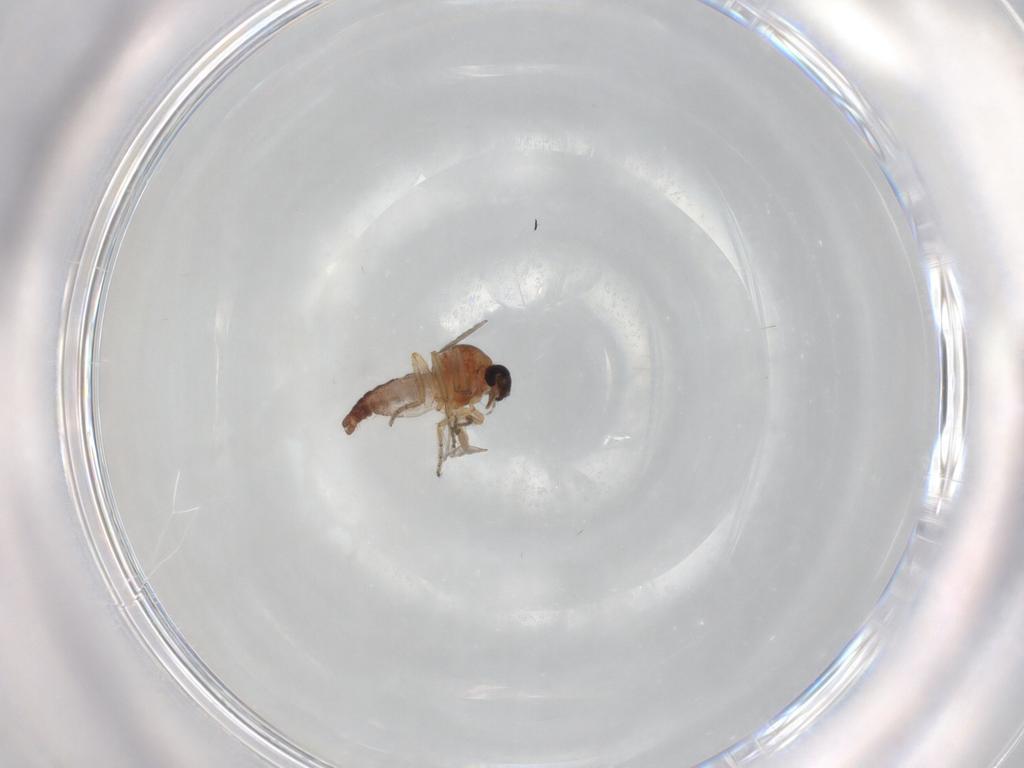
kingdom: Animalia
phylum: Arthropoda
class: Insecta
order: Diptera
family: Ceratopogonidae
